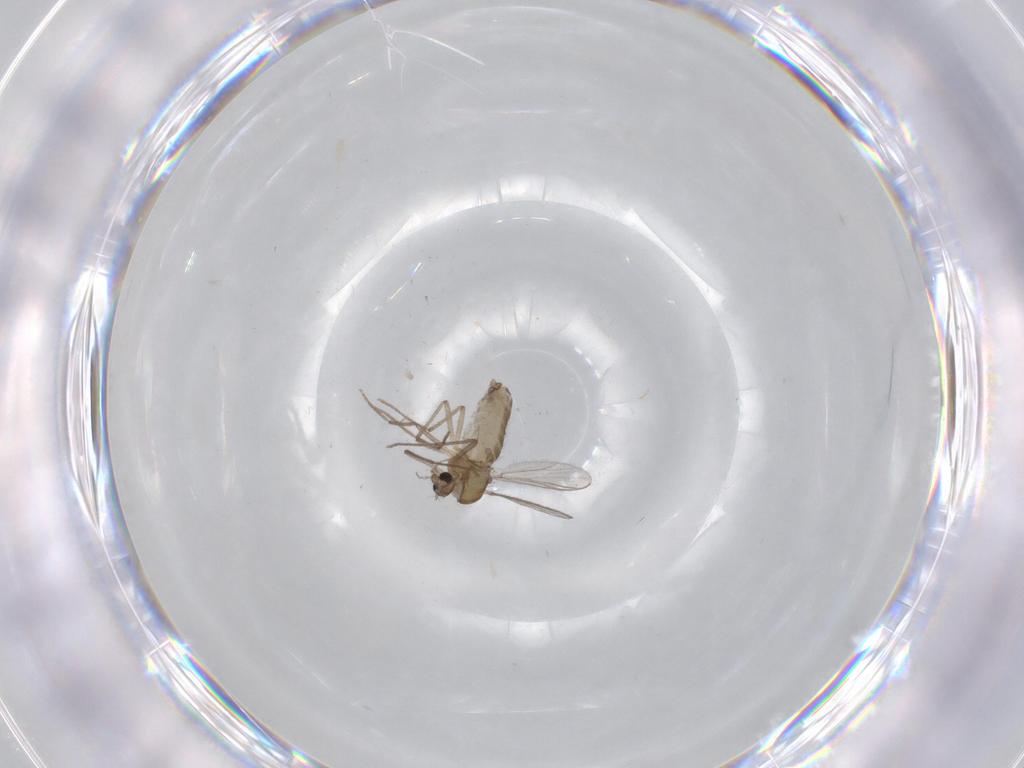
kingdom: Animalia
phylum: Arthropoda
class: Insecta
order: Diptera
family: Chironomidae
